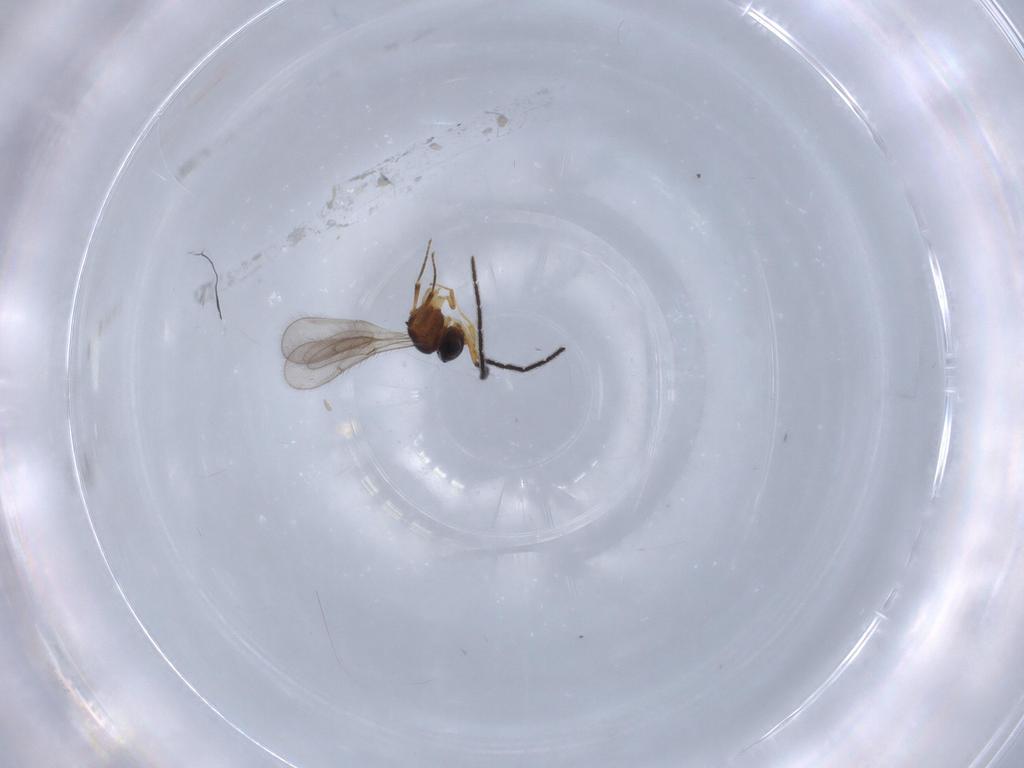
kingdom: Animalia
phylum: Arthropoda
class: Insecta
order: Hymenoptera
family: Scelionidae
